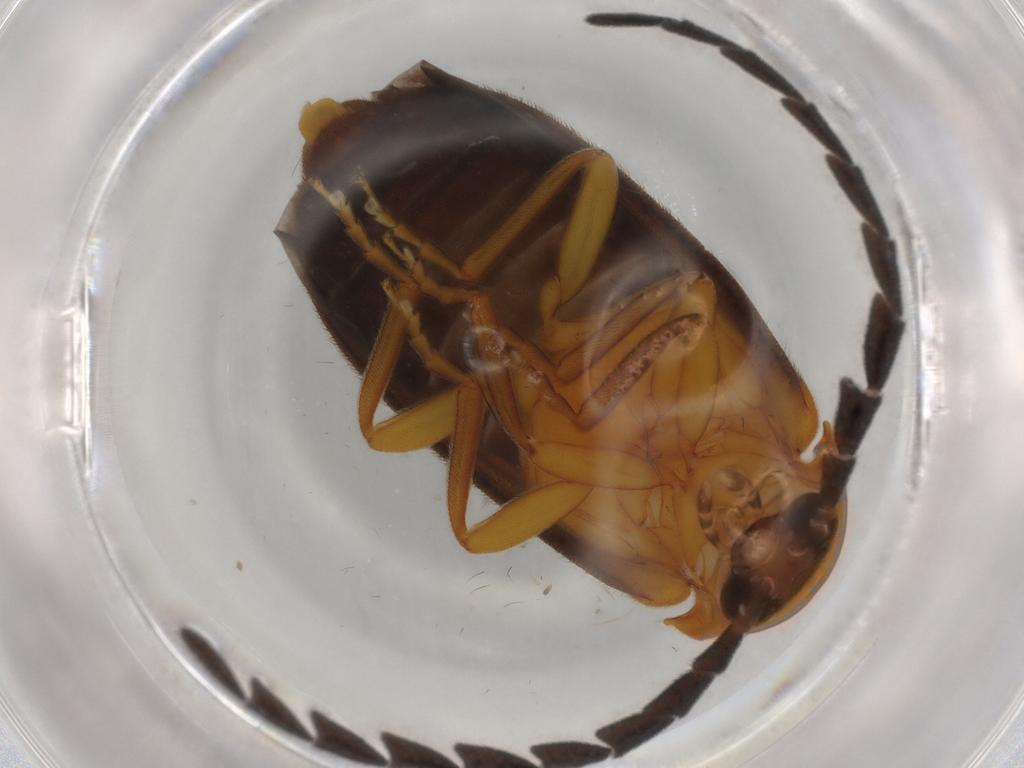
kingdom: Animalia
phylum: Arthropoda
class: Insecta
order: Coleoptera
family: Lampyridae
